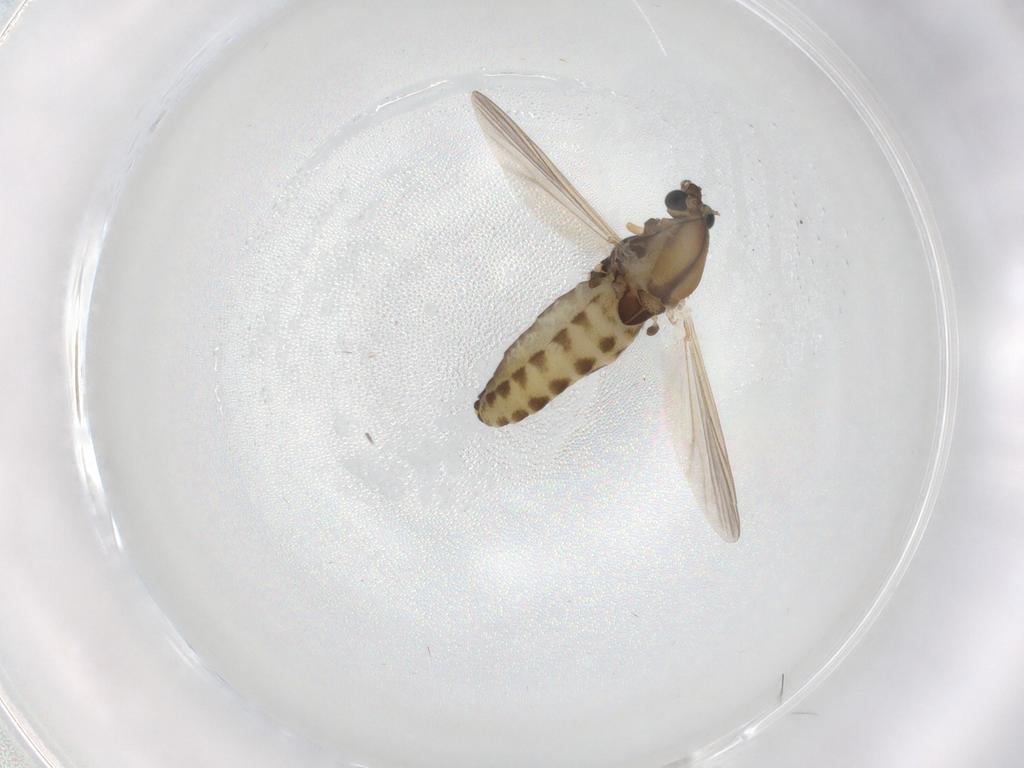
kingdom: Animalia
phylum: Arthropoda
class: Insecta
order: Diptera
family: Chironomidae
